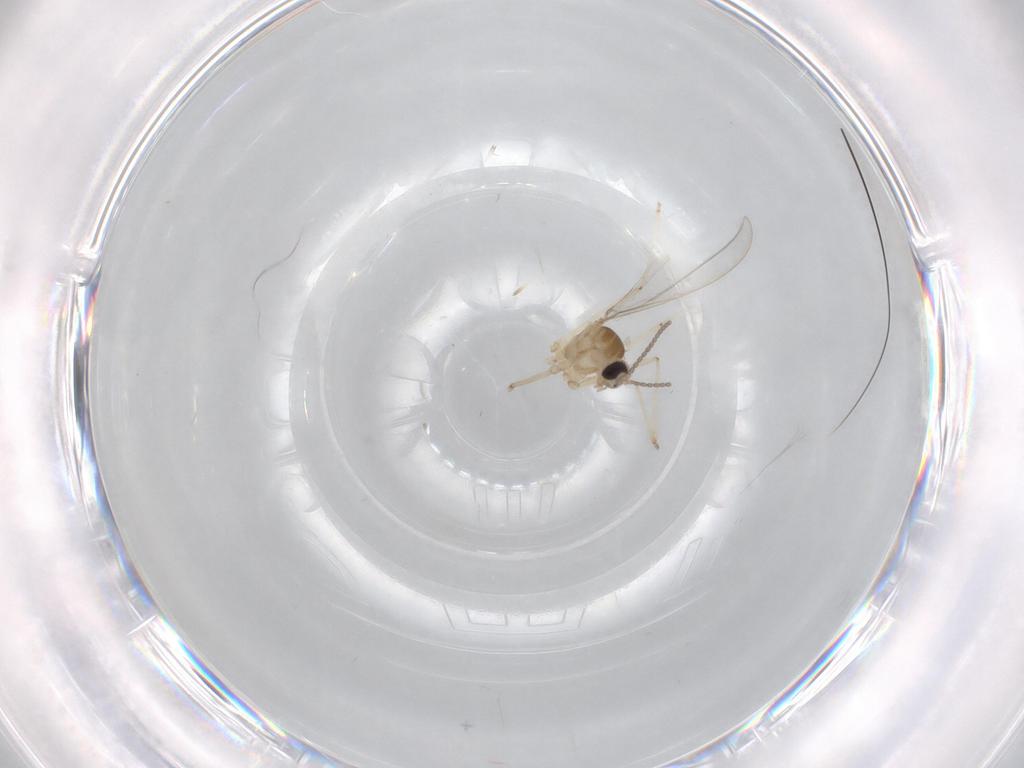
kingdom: Animalia
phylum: Arthropoda
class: Insecta
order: Diptera
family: Cecidomyiidae
